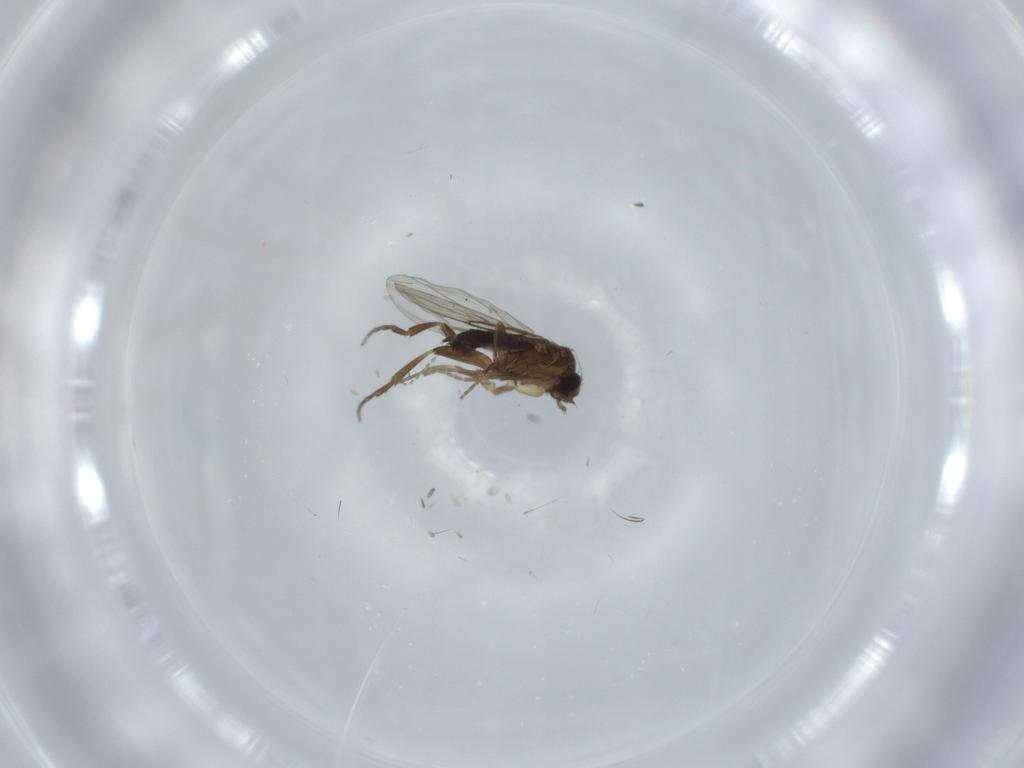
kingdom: Animalia
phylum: Arthropoda
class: Insecta
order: Diptera
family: Phoridae
